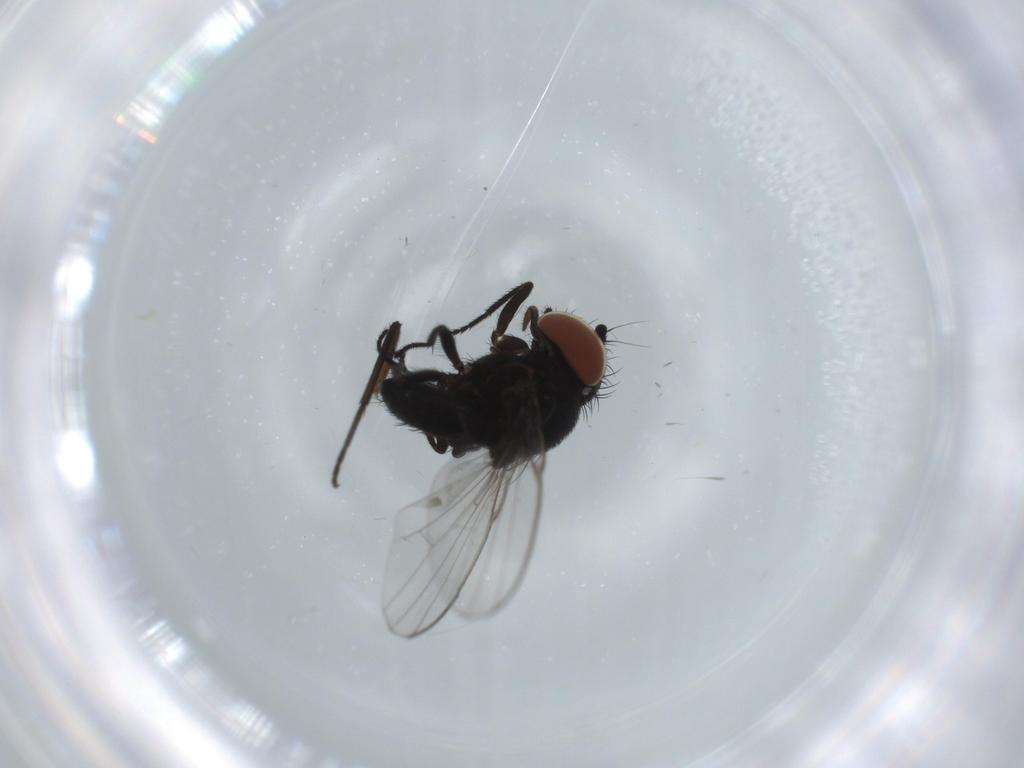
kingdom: Animalia
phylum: Arthropoda
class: Insecta
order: Diptera
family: Milichiidae
